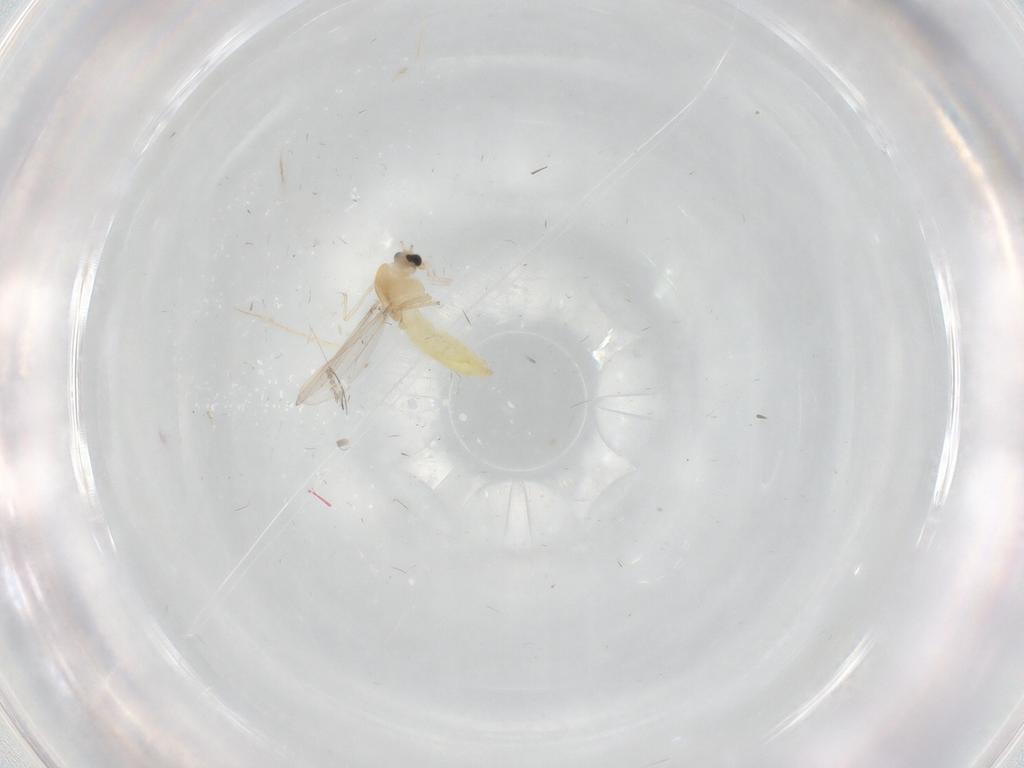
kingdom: Animalia
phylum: Arthropoda
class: Insecta
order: Diptera
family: Chironomidae
